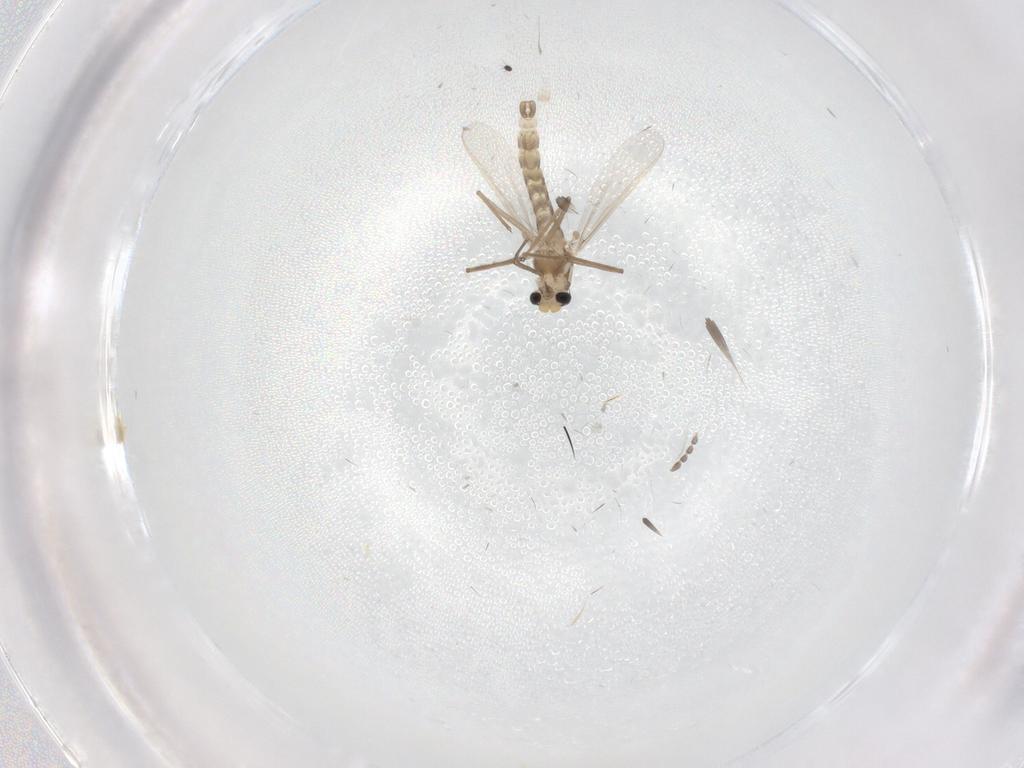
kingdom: Animalia
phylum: Arthropoda
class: Insecta
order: Diptera
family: Chironomidae
